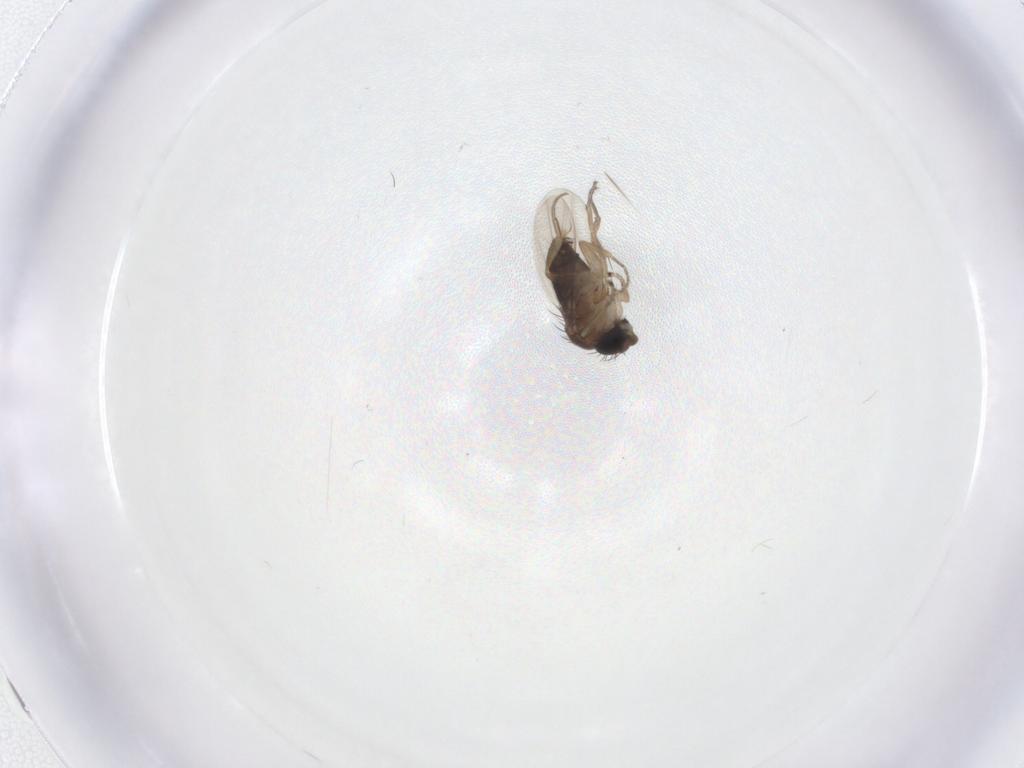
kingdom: Animalia
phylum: Arthropoda
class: Insecta
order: Diptera
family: Phoridae
